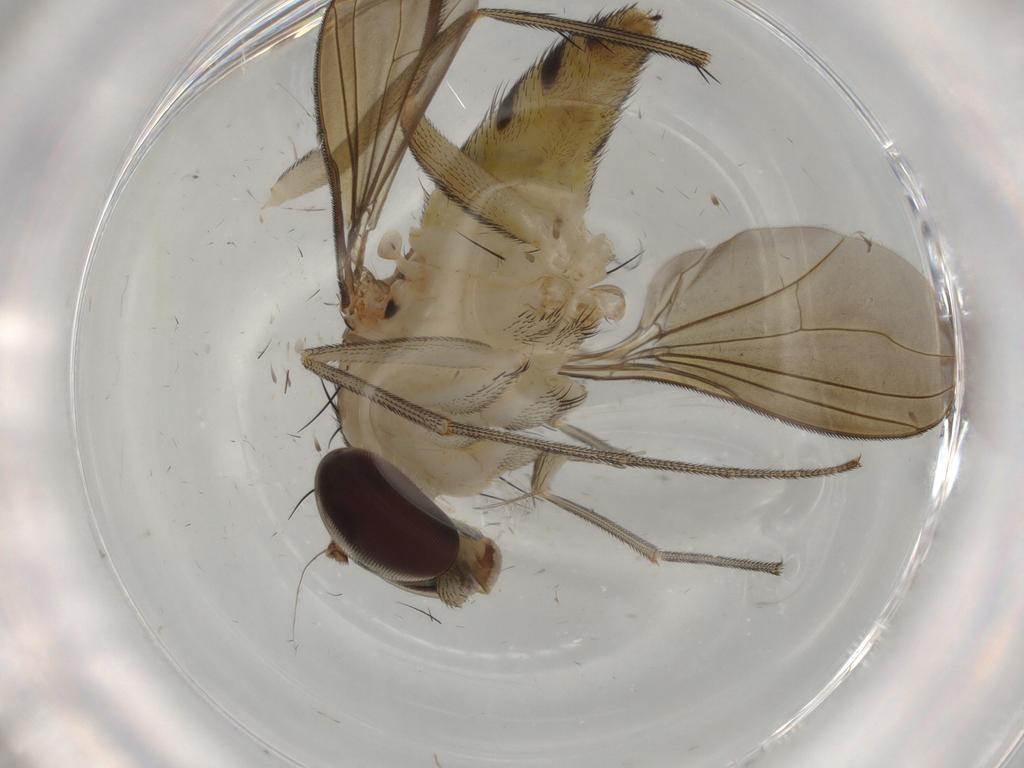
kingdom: Animalia
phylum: Arthropoda
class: Insecta
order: Diptera
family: Dolichopodidae
